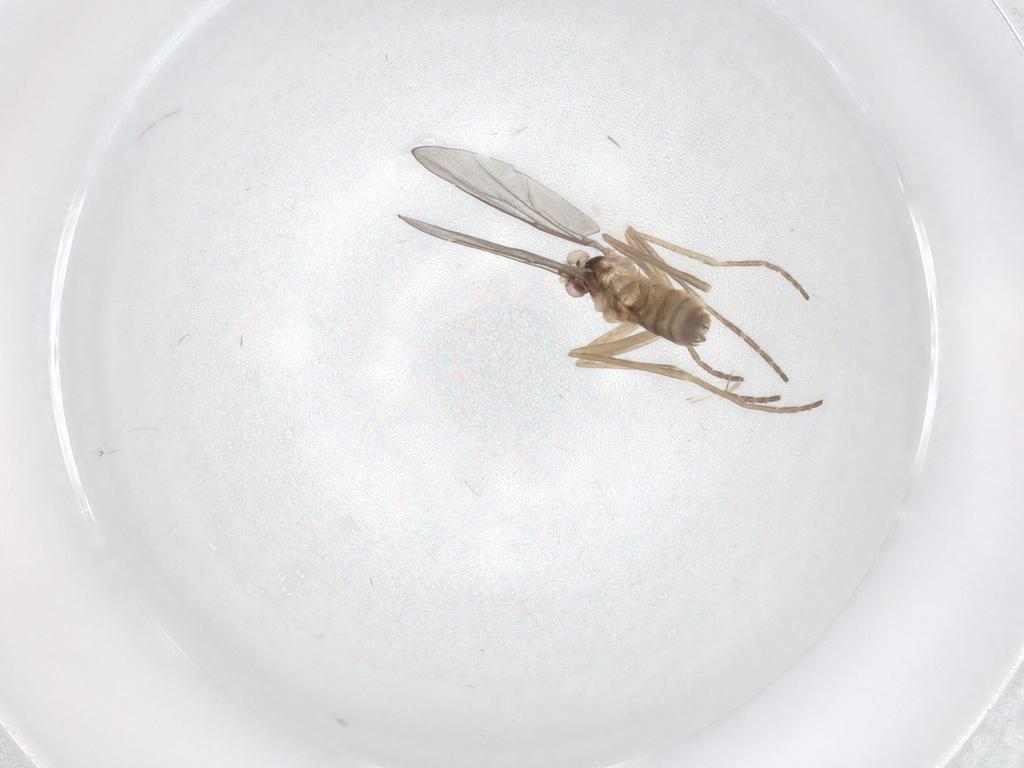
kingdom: Animalia
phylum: Arthropoda
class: Insecta
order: Diptera
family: Cecidomyiidae
